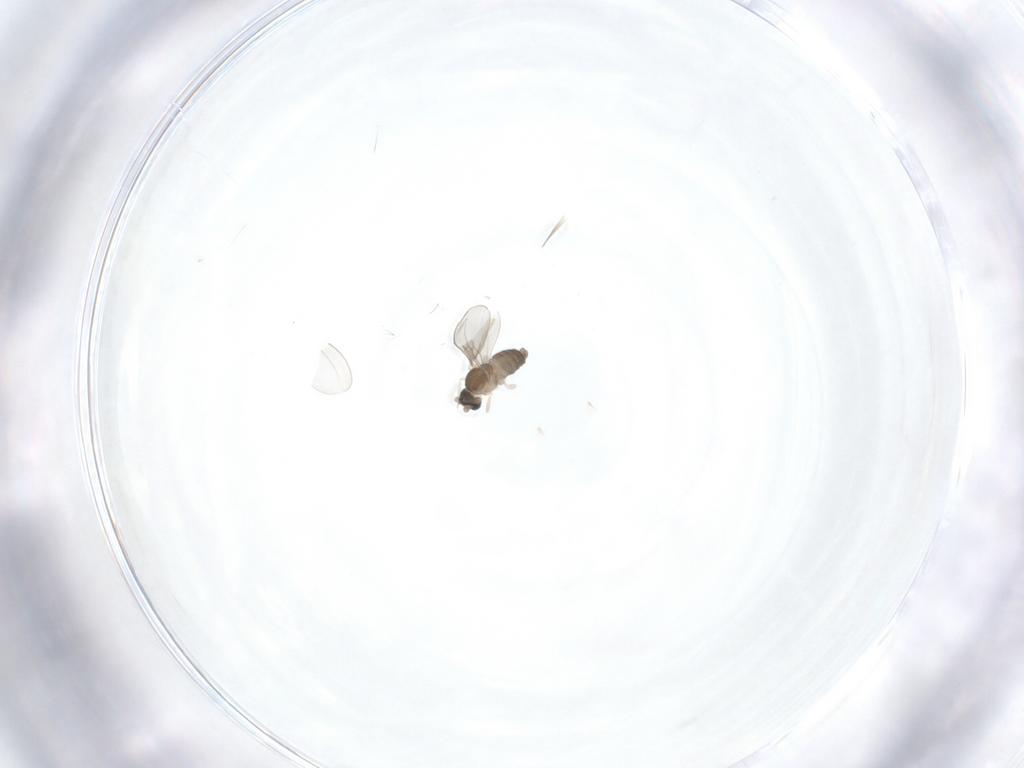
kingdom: Animalia
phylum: Arthropoda
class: Insecta
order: Diptera
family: Cecidomyiidae
